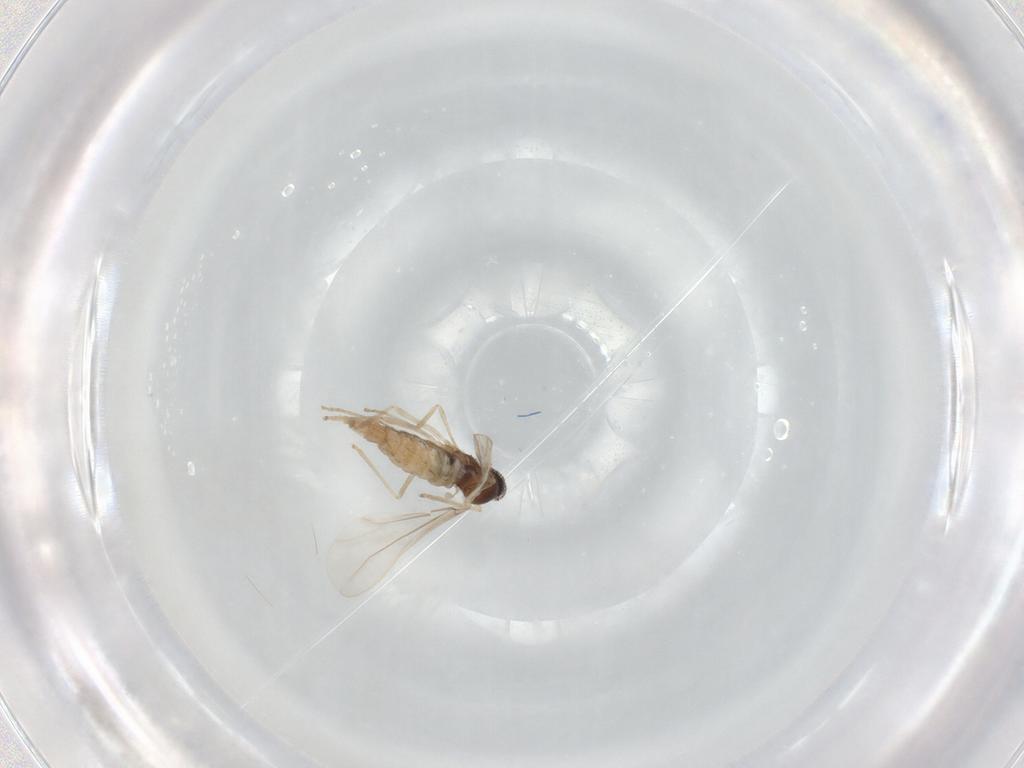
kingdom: Animalia
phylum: Arthropoda
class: Insecta
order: Diptera
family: Cecidomyiidae
